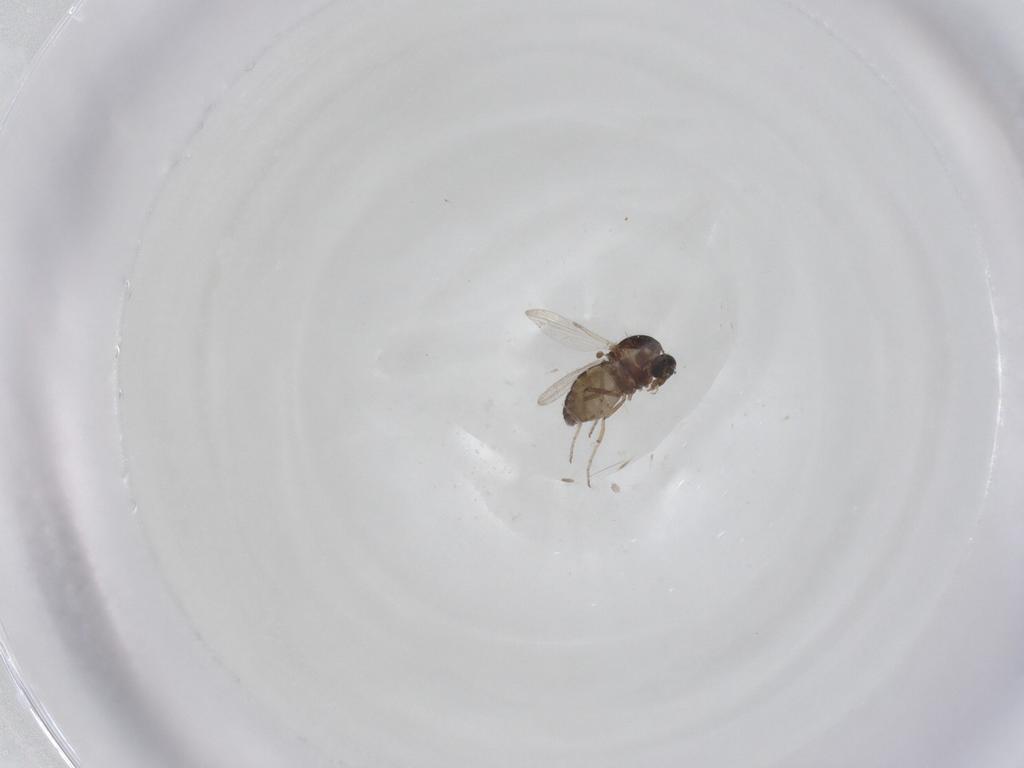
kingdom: Animalia
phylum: Arthropoda
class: Insecta
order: Diptera
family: Ceratopogonidae
